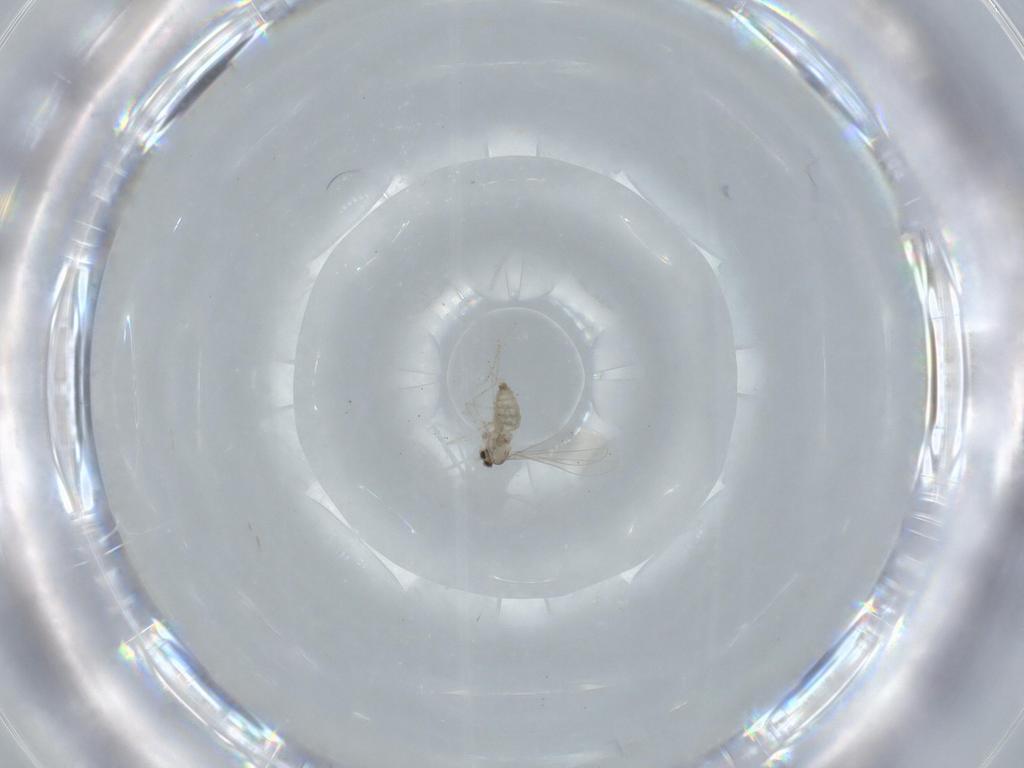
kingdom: Animalia
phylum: Arthropoda
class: Insecta
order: Diptera
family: Cecidomyiidae
